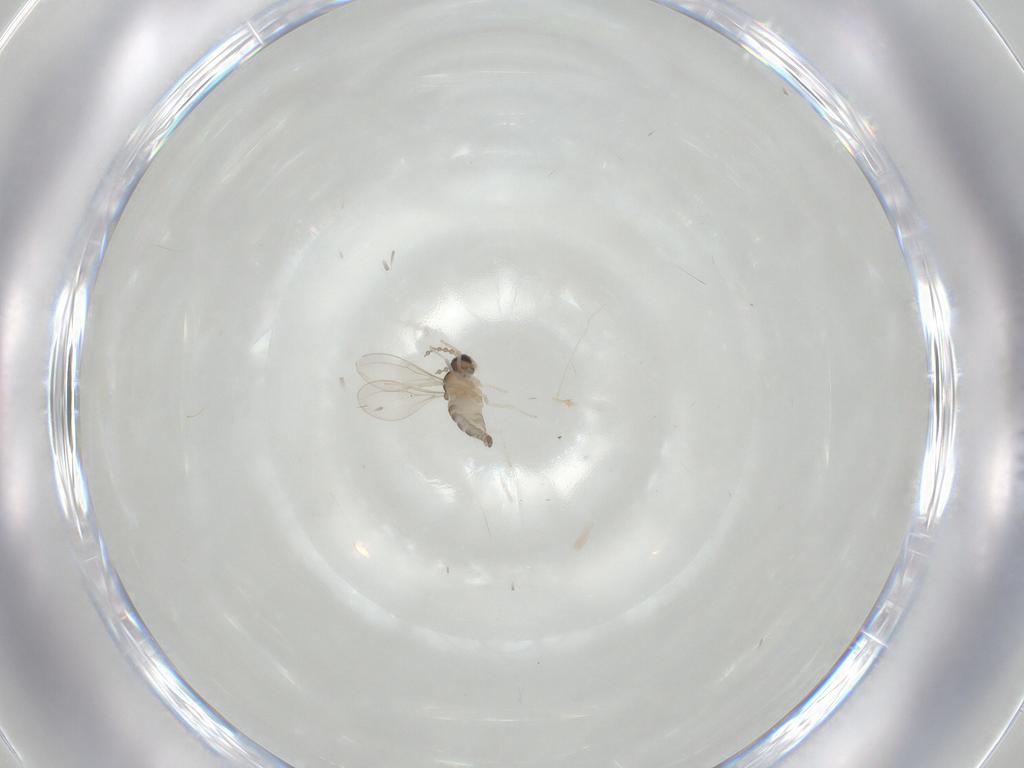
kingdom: Animalia
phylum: Arthropoda
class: Insecta
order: Diptera
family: Cecidomyiidae
